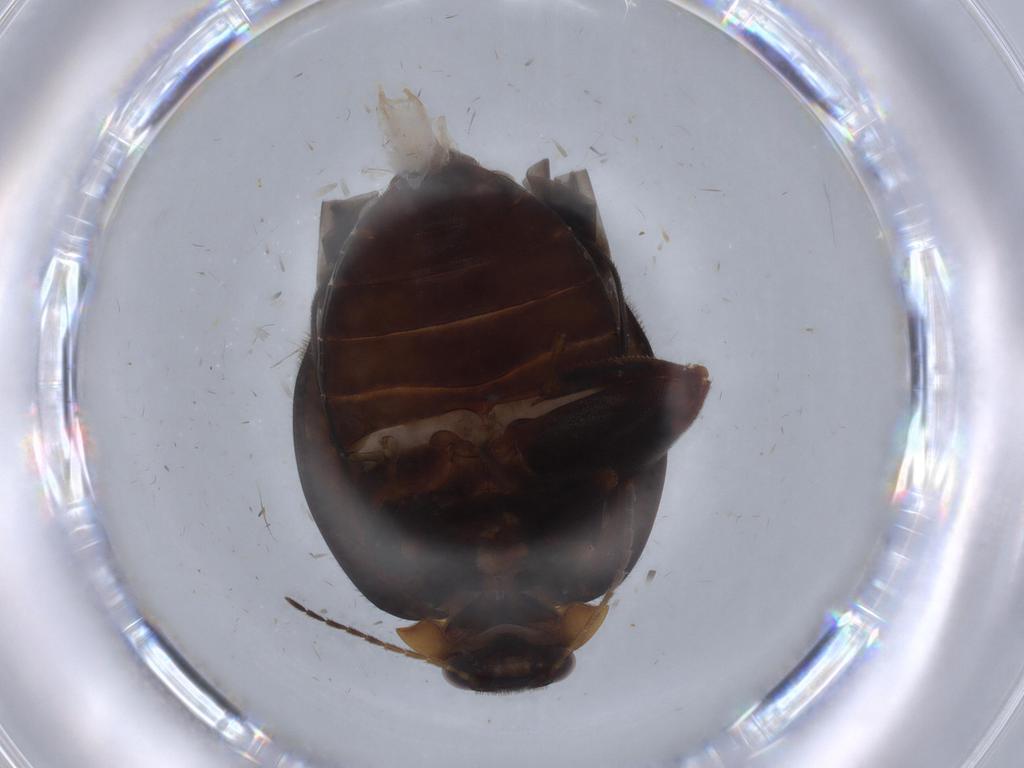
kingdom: Animalia
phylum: Arthropoda
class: Insecta
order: Coleoptera
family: Scirtidae
